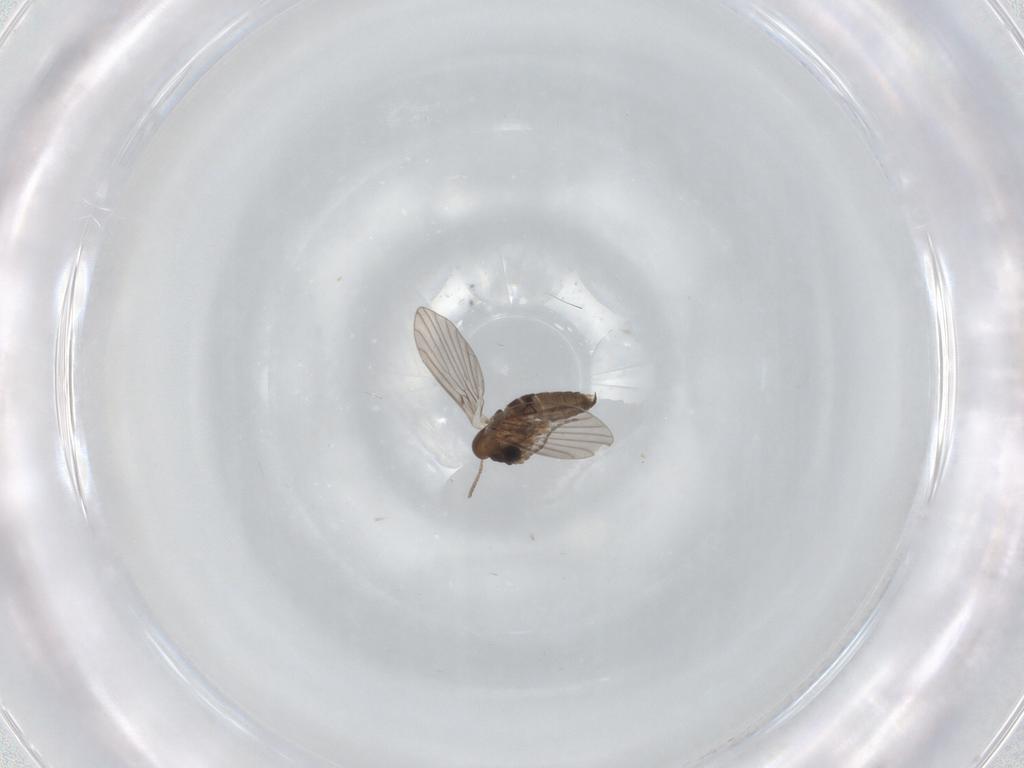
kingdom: Animalia
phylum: Arthropoda
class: Insecta
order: Diptera
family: Chloropidae
